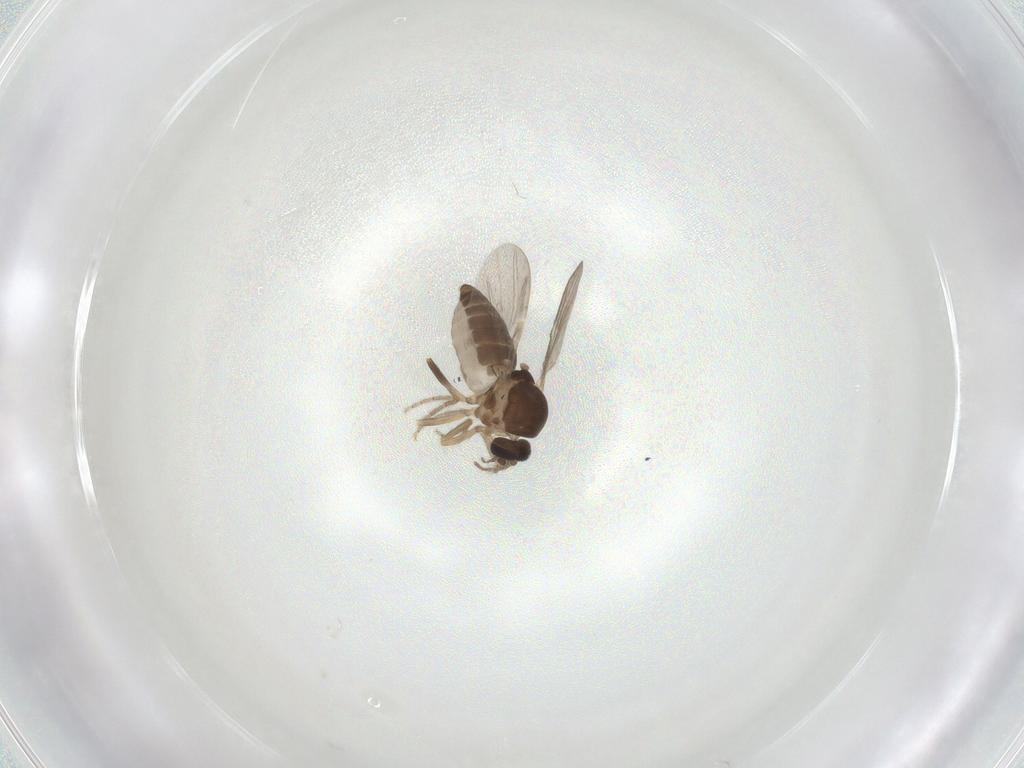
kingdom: Animalia
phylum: Arthropoda
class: Insecta
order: Diptera
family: Sciaridae
